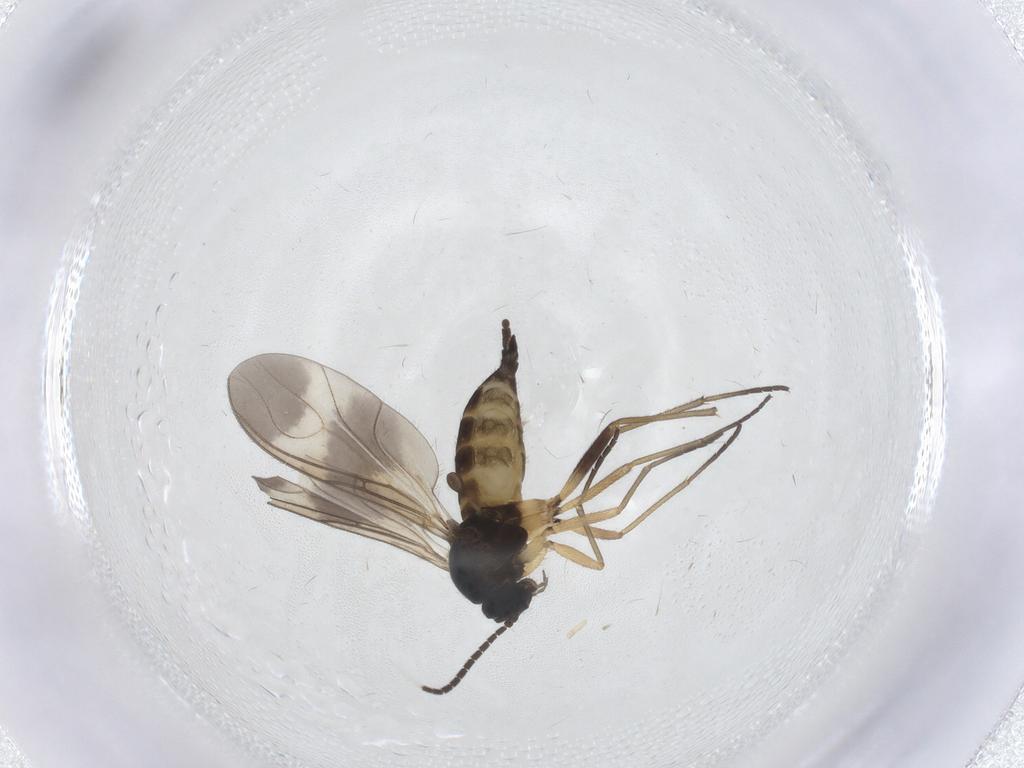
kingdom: Animalia
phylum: Arthropoda
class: Insecta
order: Diptera
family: Sciaridae
